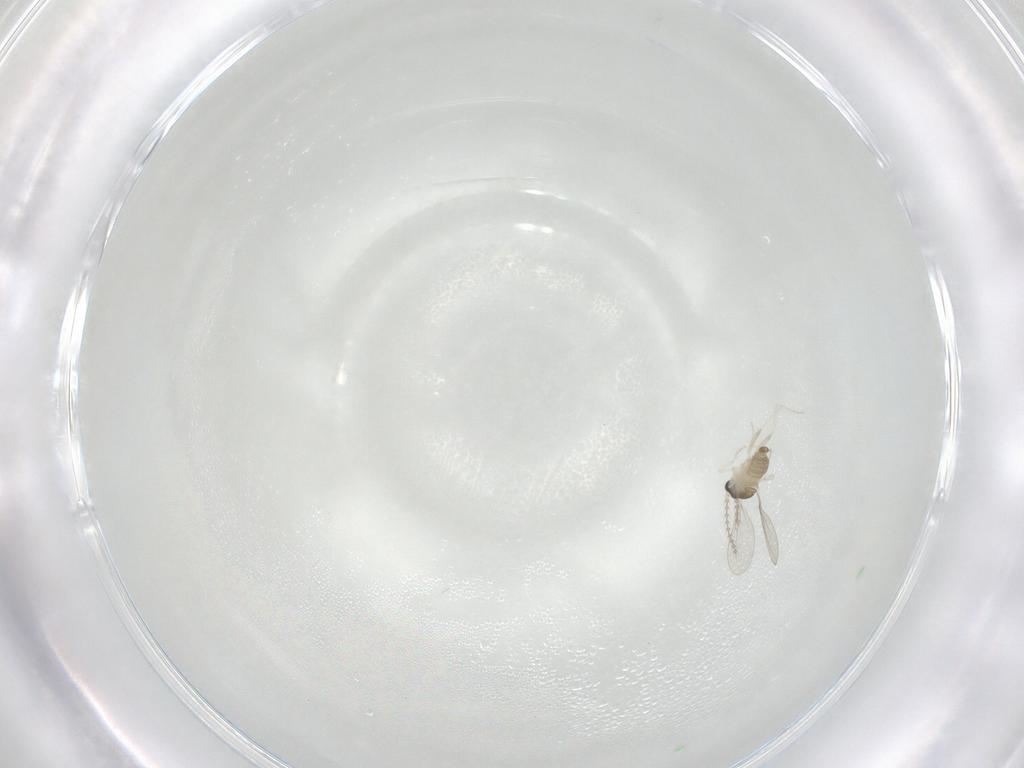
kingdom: Animalia
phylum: Arthropoda
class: Insecta
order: Diptera
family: Cecidomyiidae
